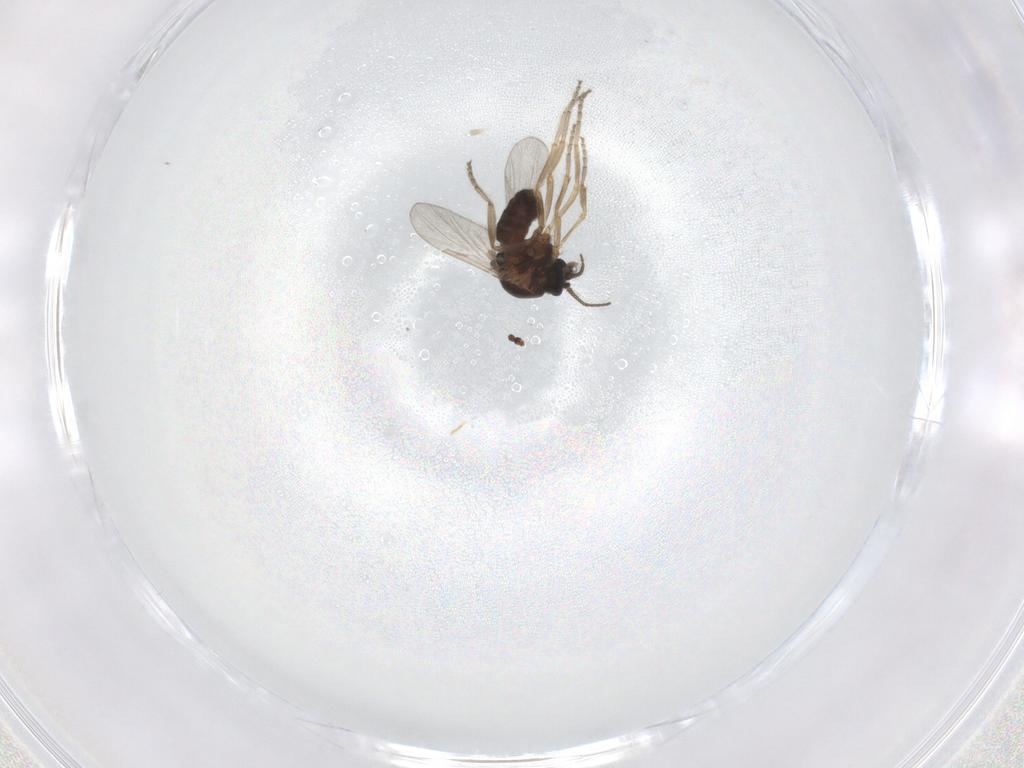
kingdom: Animalia
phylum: Arthropoda
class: Insecta
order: Diptera
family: Ceratopogonidae
